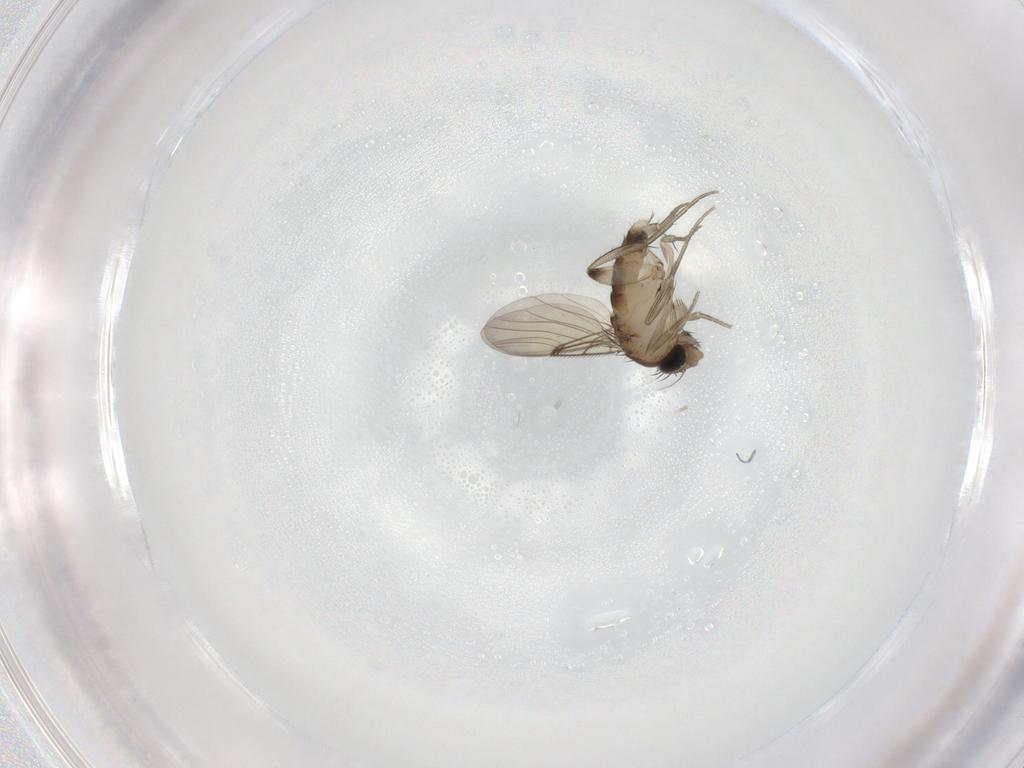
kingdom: Animalia
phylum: Arthropoda
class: Insecta
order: Diptera
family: Phoridae
